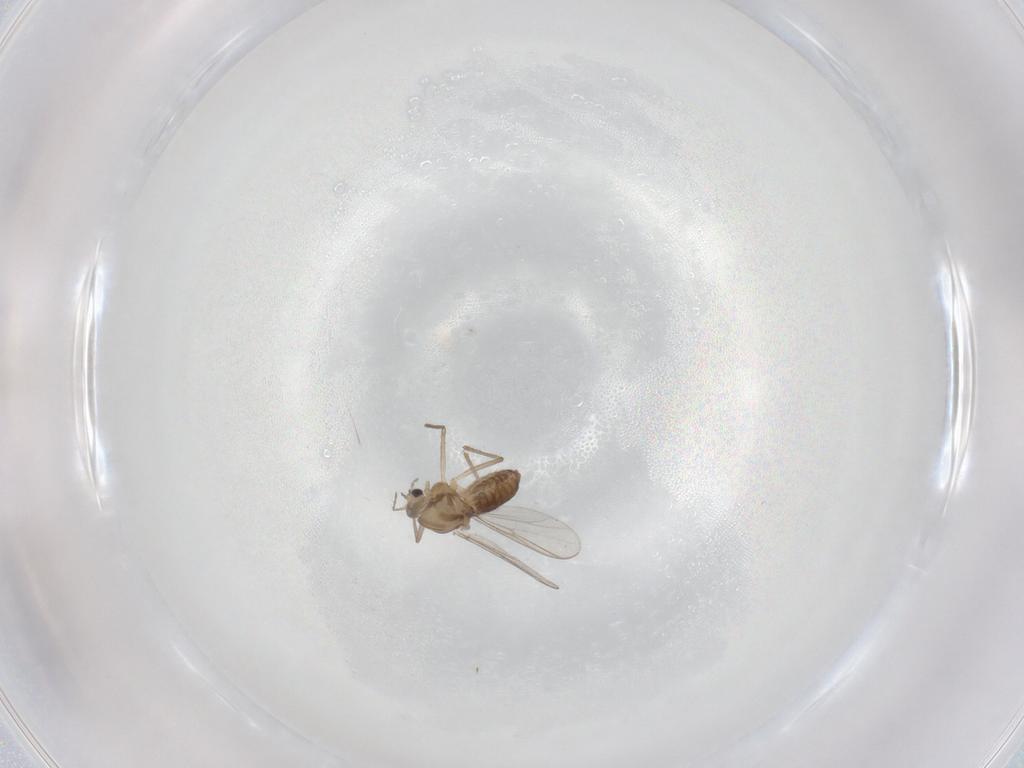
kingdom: Animalia
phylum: Arthropoda
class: Insecta
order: Diptera
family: Chironomidae
